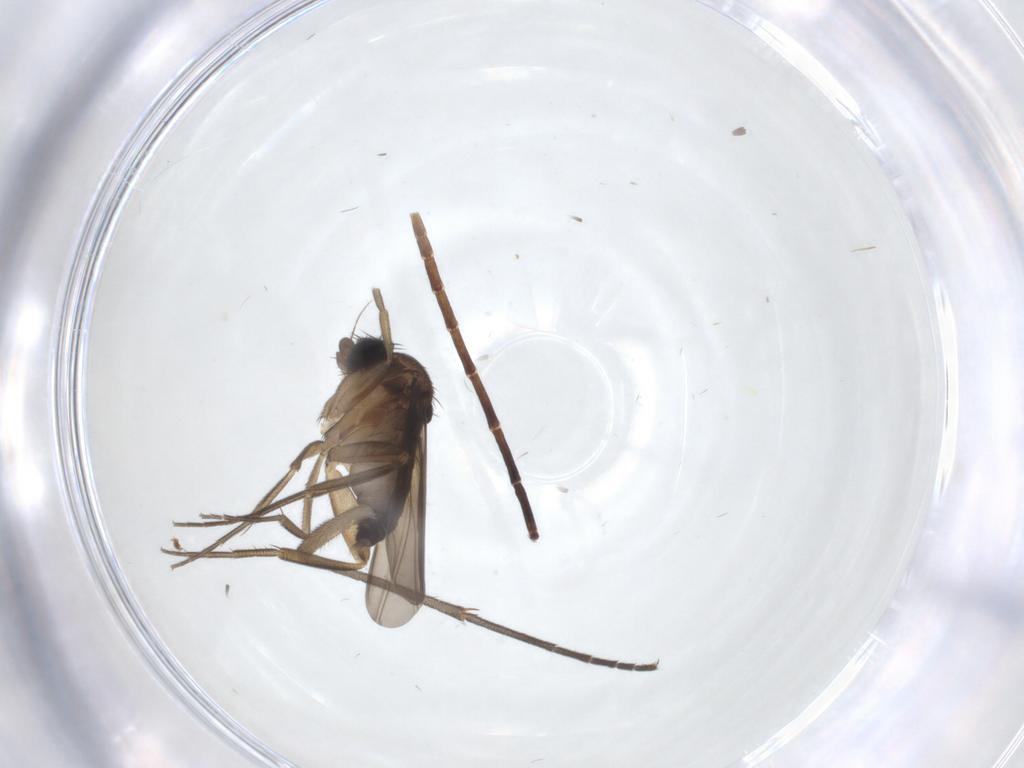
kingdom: Animalia
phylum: Arthropoda
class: Insecta
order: Diptera
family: Sciaridae
